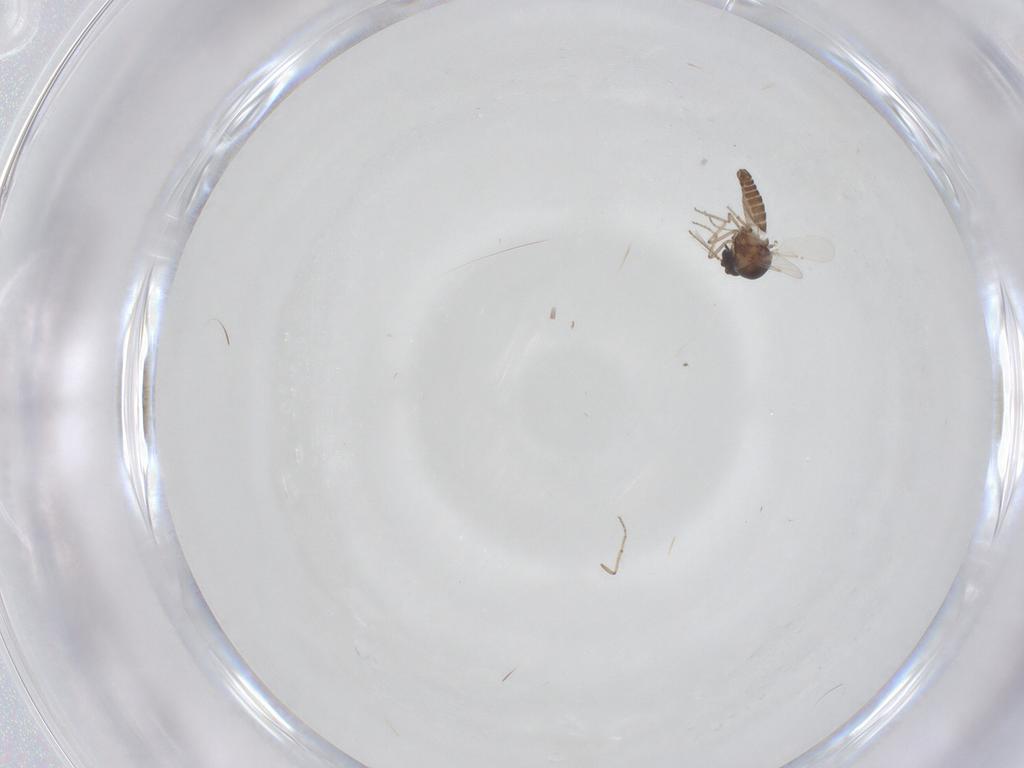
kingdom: Animalia
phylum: Arthropoda
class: Insecta
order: Diptera
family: Ceratopogonidae
